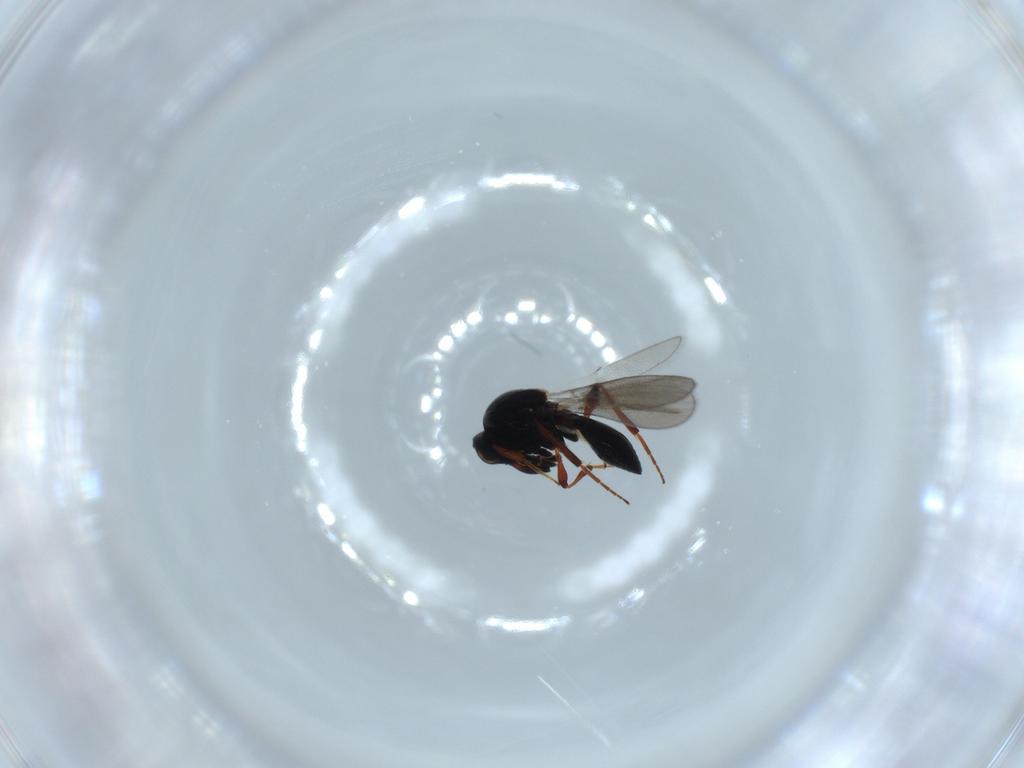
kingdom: Animalia
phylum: Arthropoda
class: Insecta
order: Hymenoptera
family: Platygastridae
